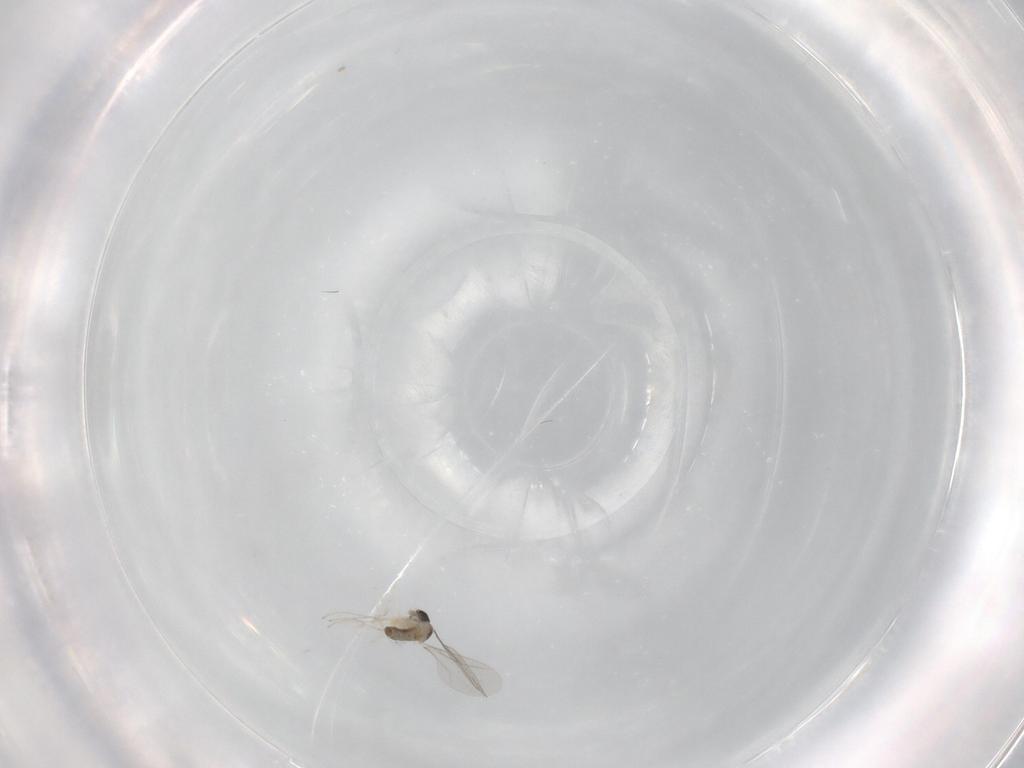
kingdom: Animalia
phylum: Arthropoda
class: Insecta
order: Diptera
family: Cecidomyiidae
